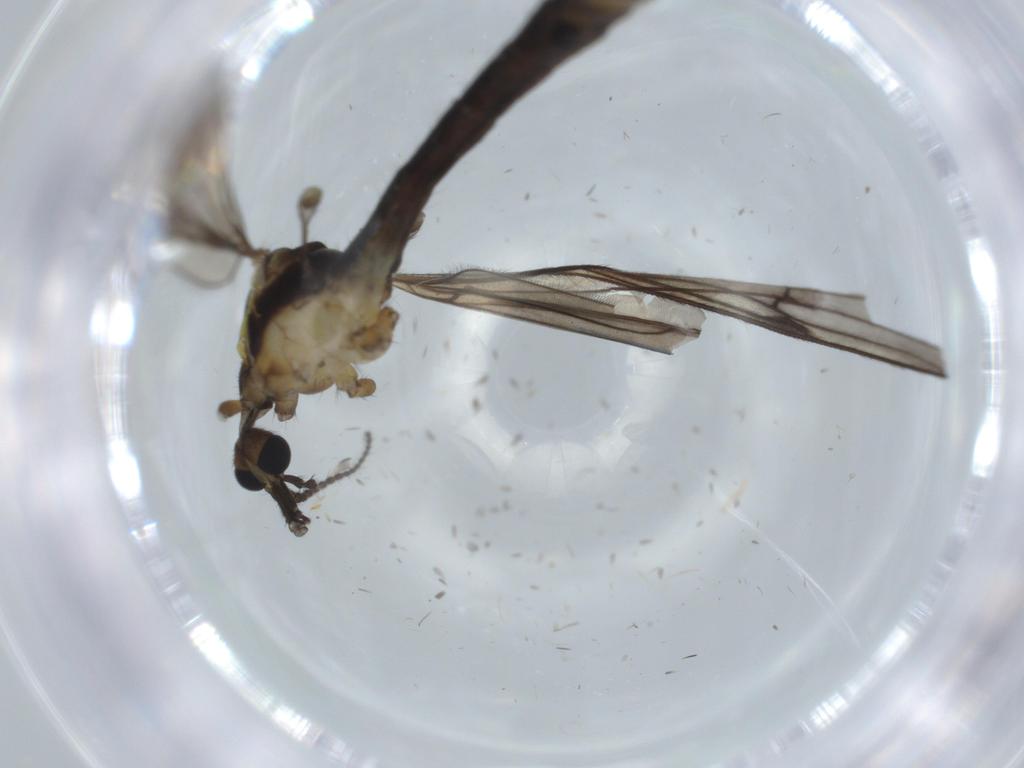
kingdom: Animalia
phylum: Arthropoda
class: Insecta
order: Diptera
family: Limoniidae
